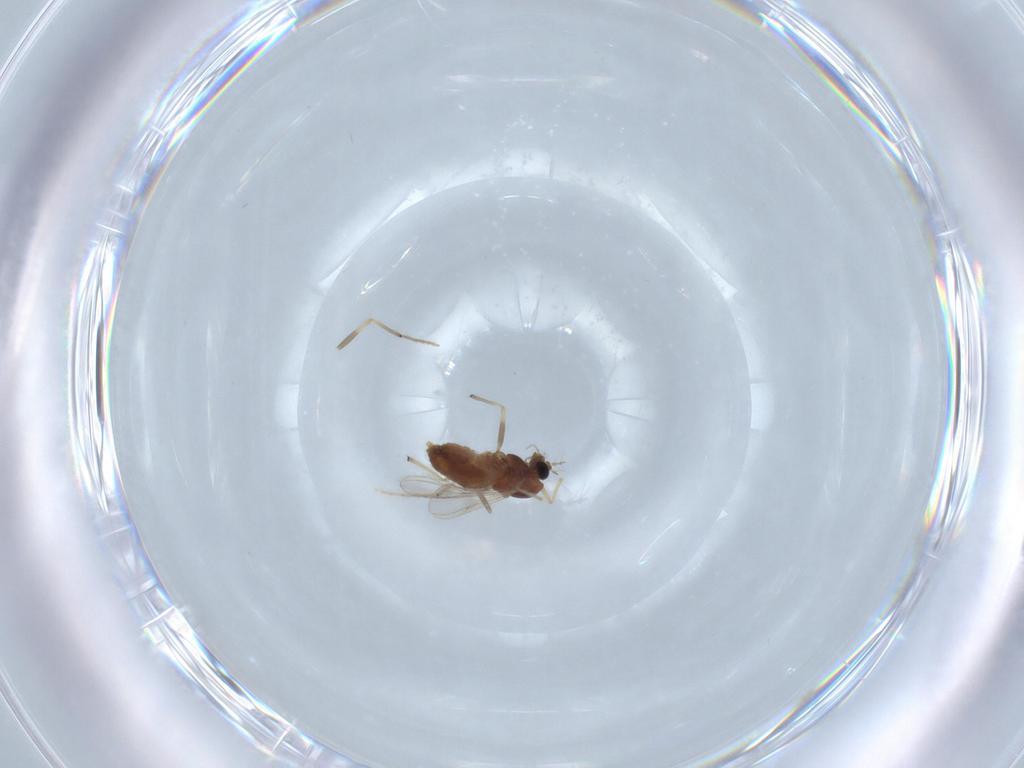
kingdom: Animalia
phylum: Arthropoda
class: Insecta
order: Diptera
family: Chironomidae
